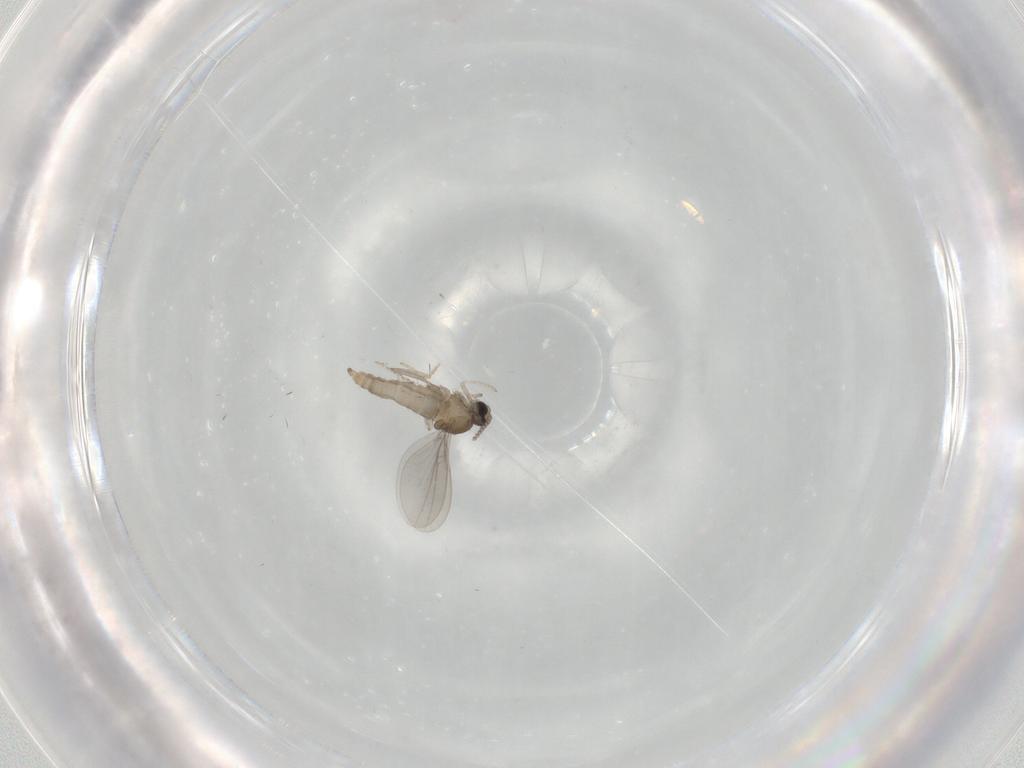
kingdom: Animalia
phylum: Arthropoda
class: Insecta
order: Diptera
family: Cecidomyiidae
